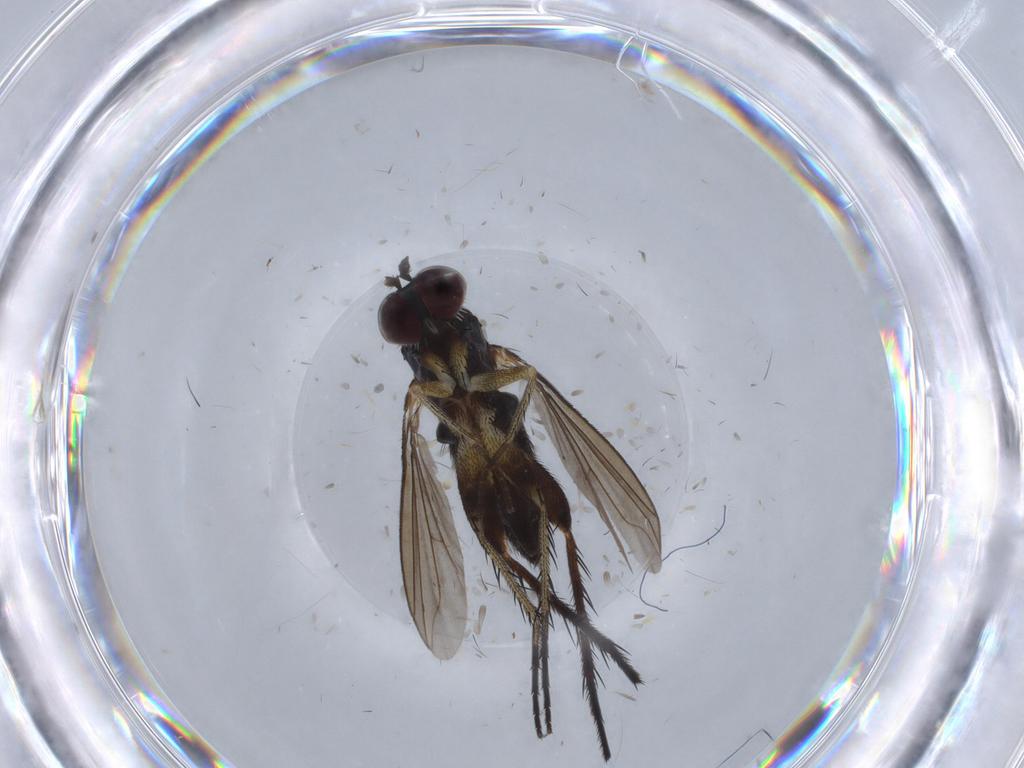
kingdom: Animalia
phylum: Arthropoda
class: Insecta
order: Diptera
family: Dolichopodidae
